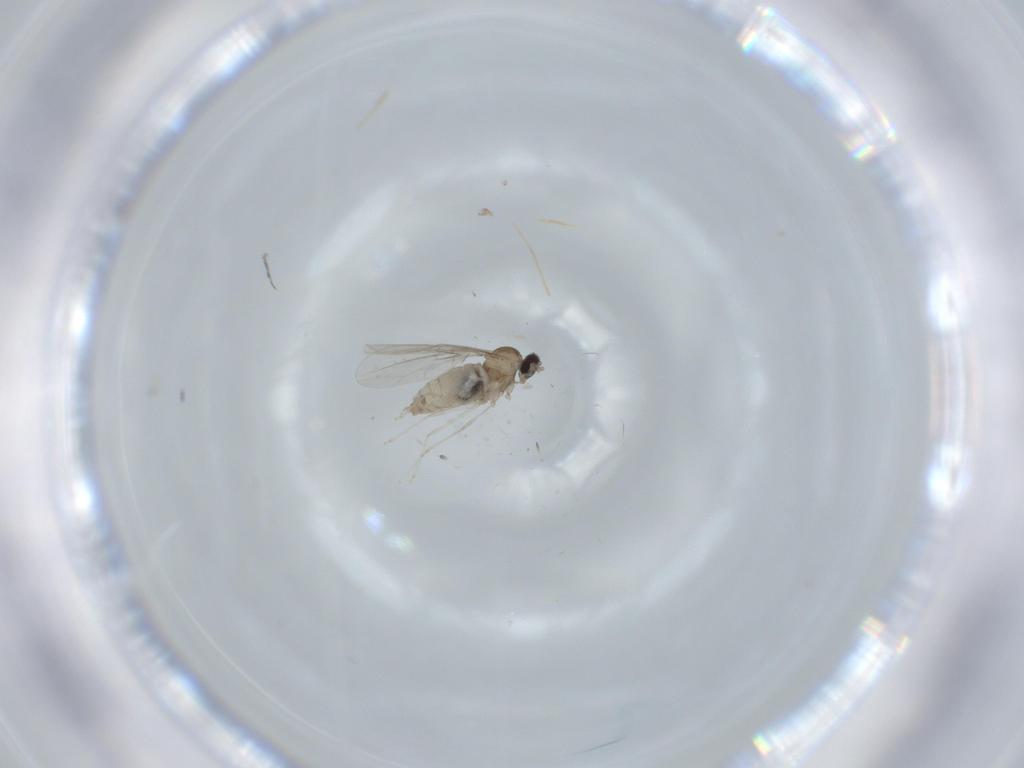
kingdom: Animalia
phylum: Arthropoda
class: Insecta
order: Diptera
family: Cecidomyiidae
